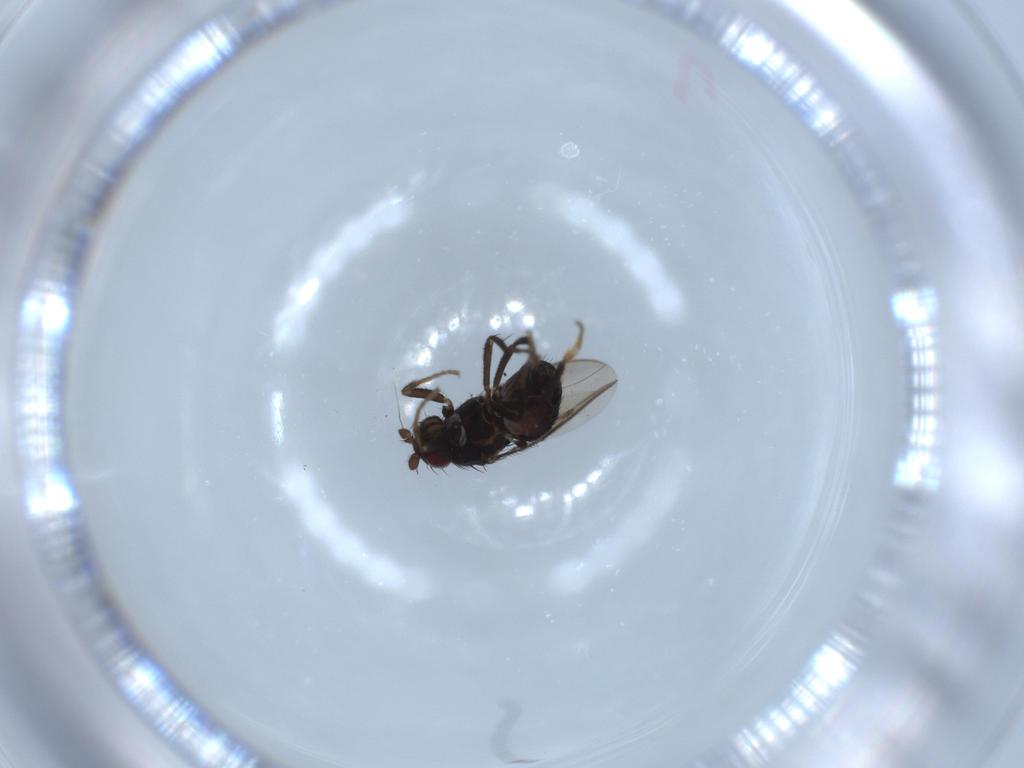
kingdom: Animalia
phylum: Arthropoda
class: Insecta
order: Diptera
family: Sphaeroceridae
